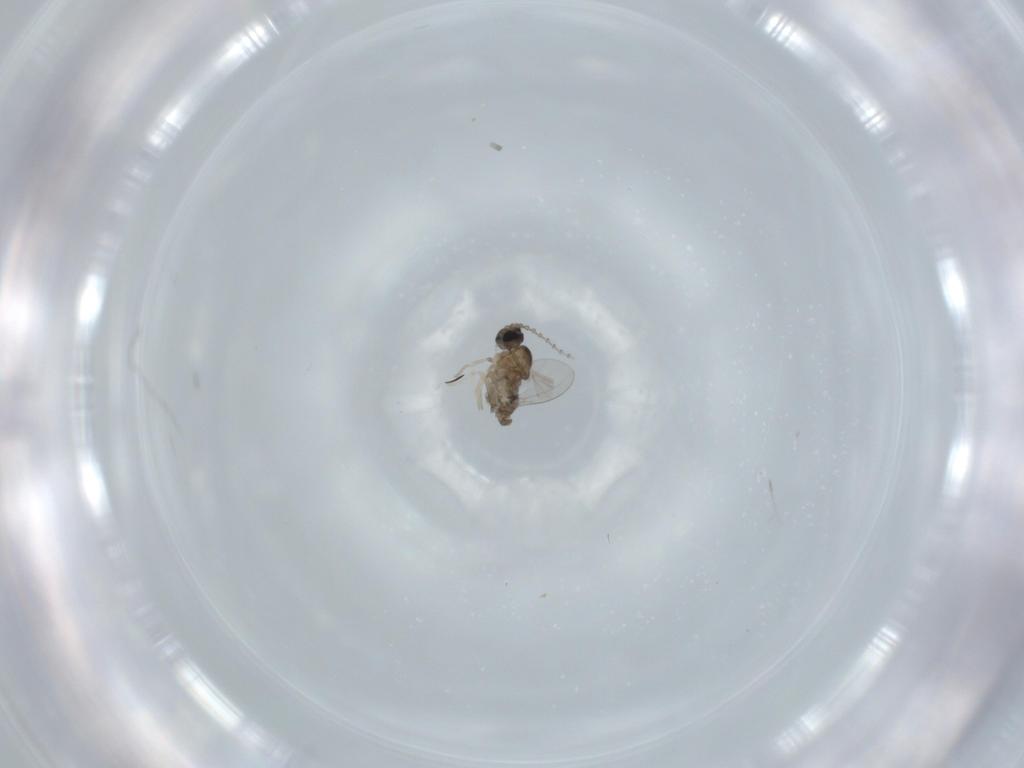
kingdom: Animalia
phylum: Arthropoda
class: Insecta
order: Diptera
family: Cecidomyiidae
